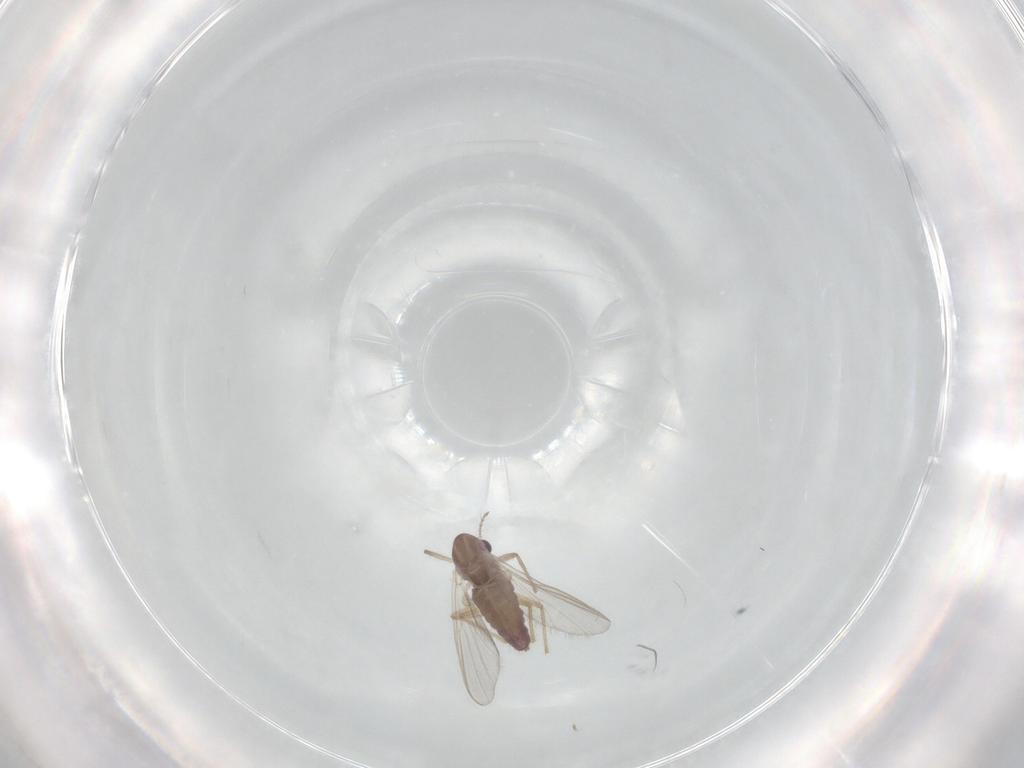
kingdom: Animalia
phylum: Arthropoda
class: Insecta
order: Diptera
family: Chironomidae
